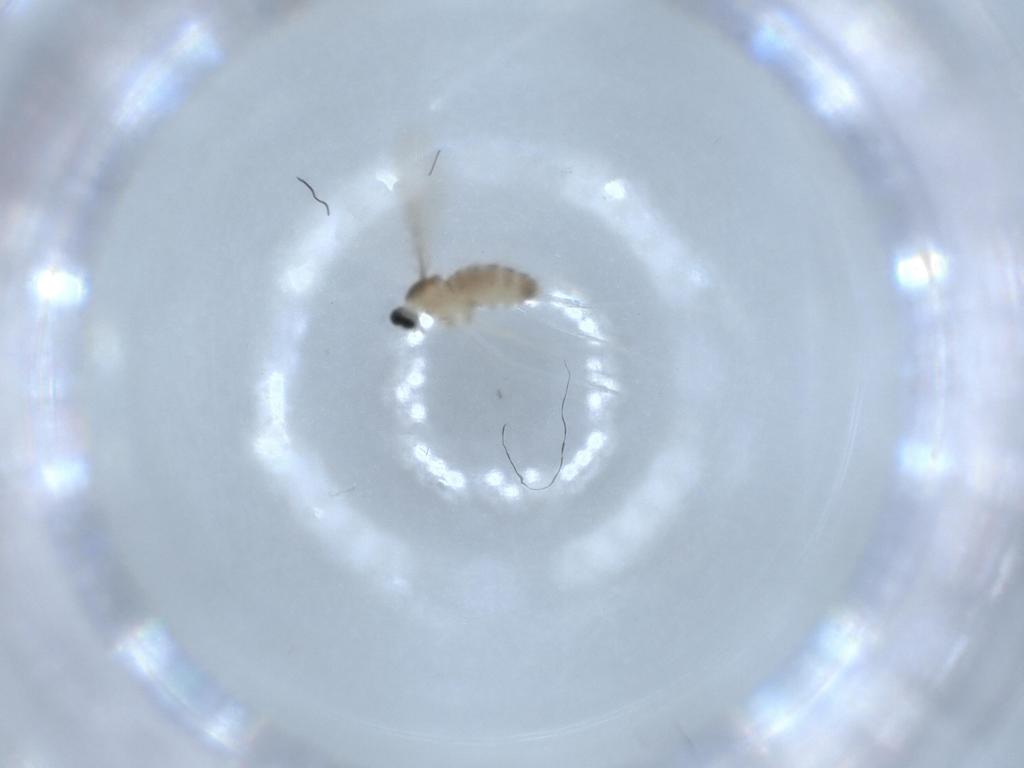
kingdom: Animalia
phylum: Arthropoda
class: Insecta
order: Diptera
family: Cecidomyiidae
